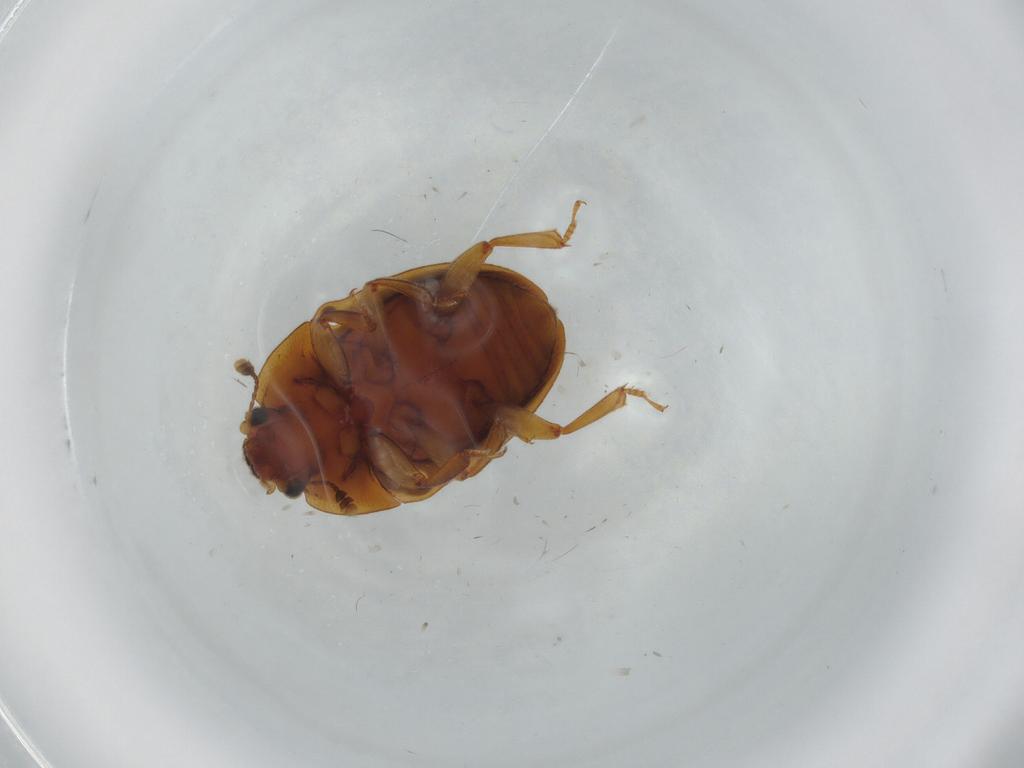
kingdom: Animalia
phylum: Arthropoda
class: Insecta
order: Coleoptera
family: Nitidulidae
